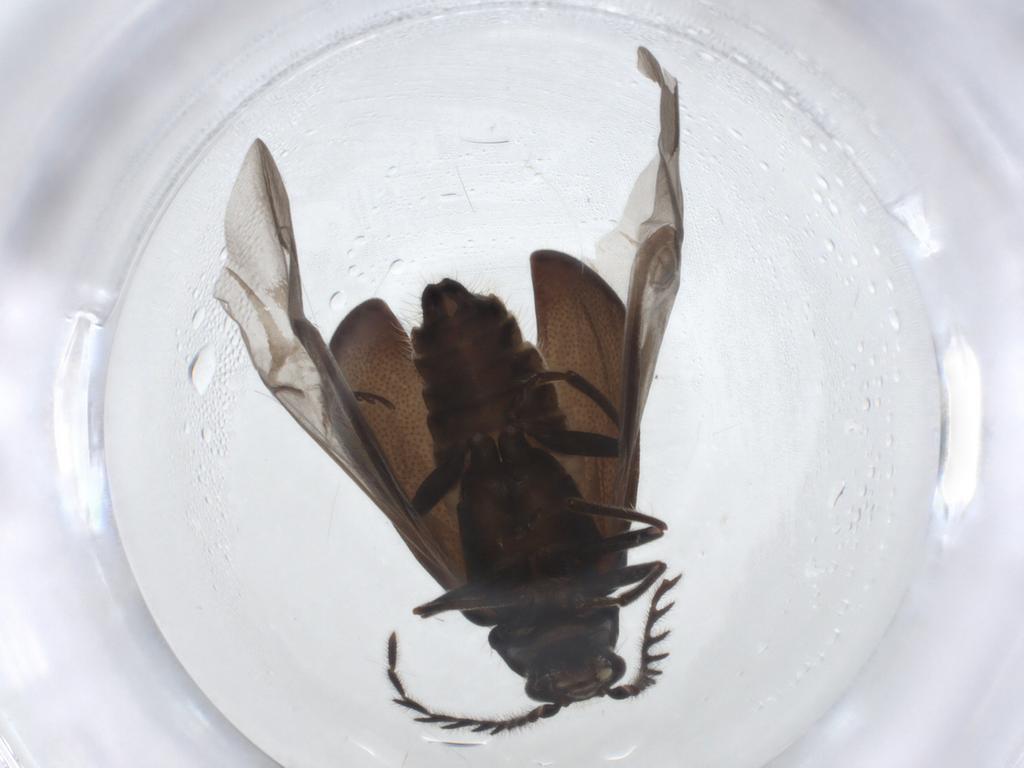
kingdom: Animalia
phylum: Arthropoda
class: Insecta
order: Coleoptera
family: Melyridae
